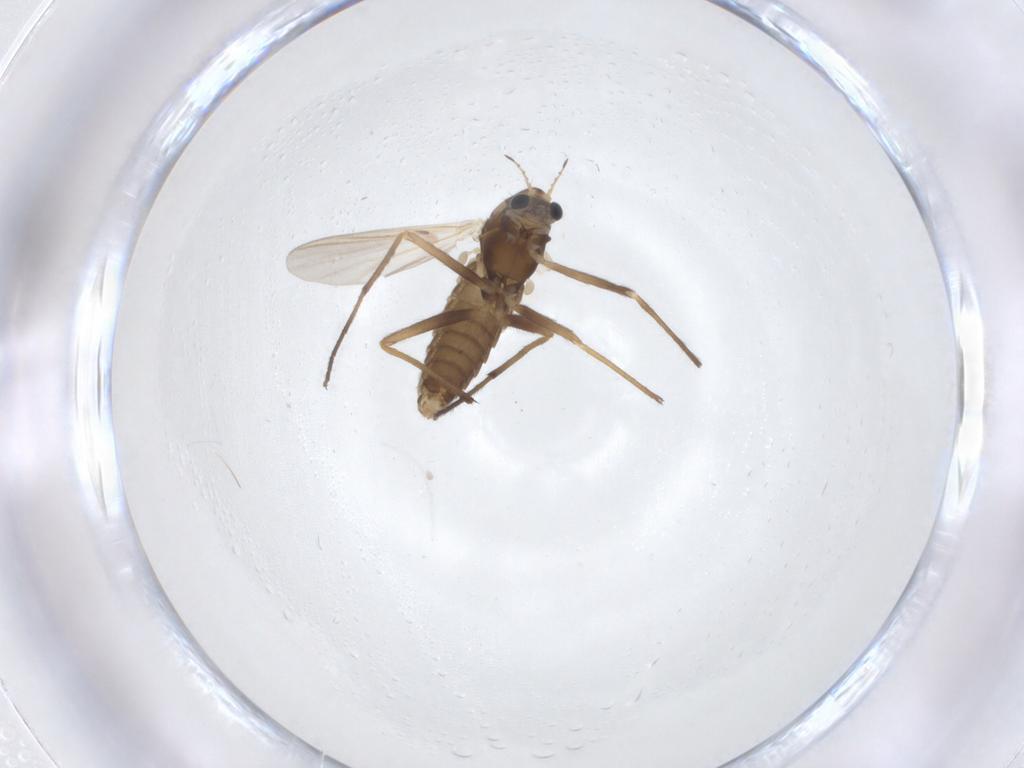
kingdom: Animalia
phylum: Arthropoda
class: Insecta
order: Diptera
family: Chironomidae
